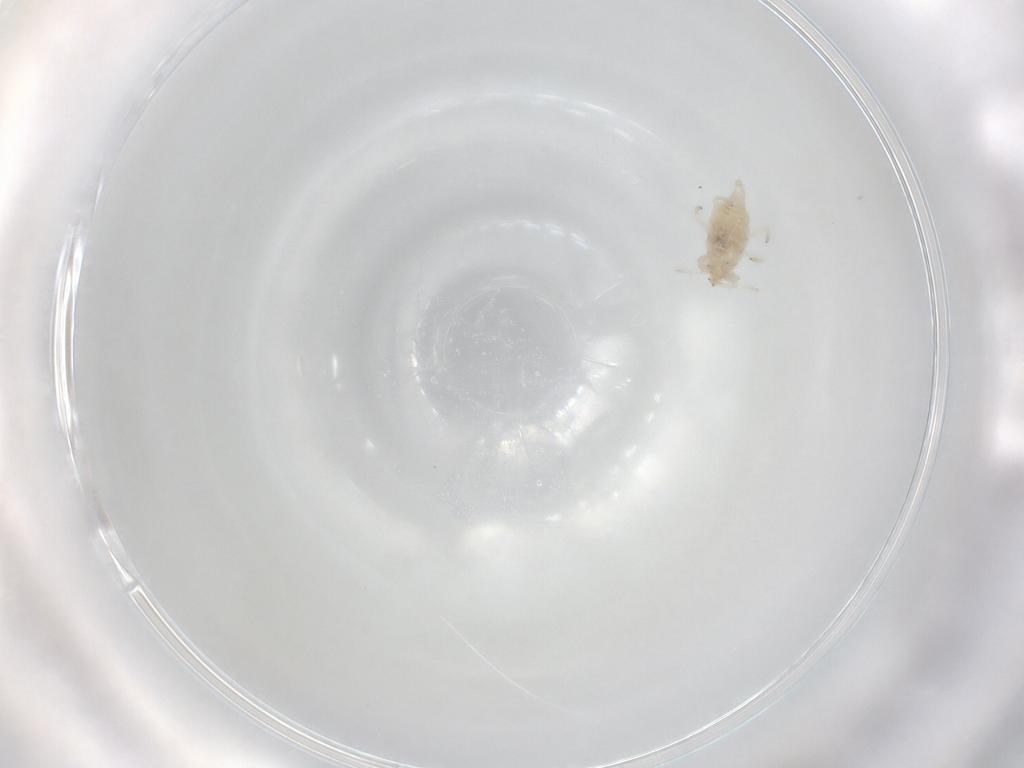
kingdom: Animalia
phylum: Arthropoda
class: Insecta
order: Neuroptera
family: Coniopterygidae
